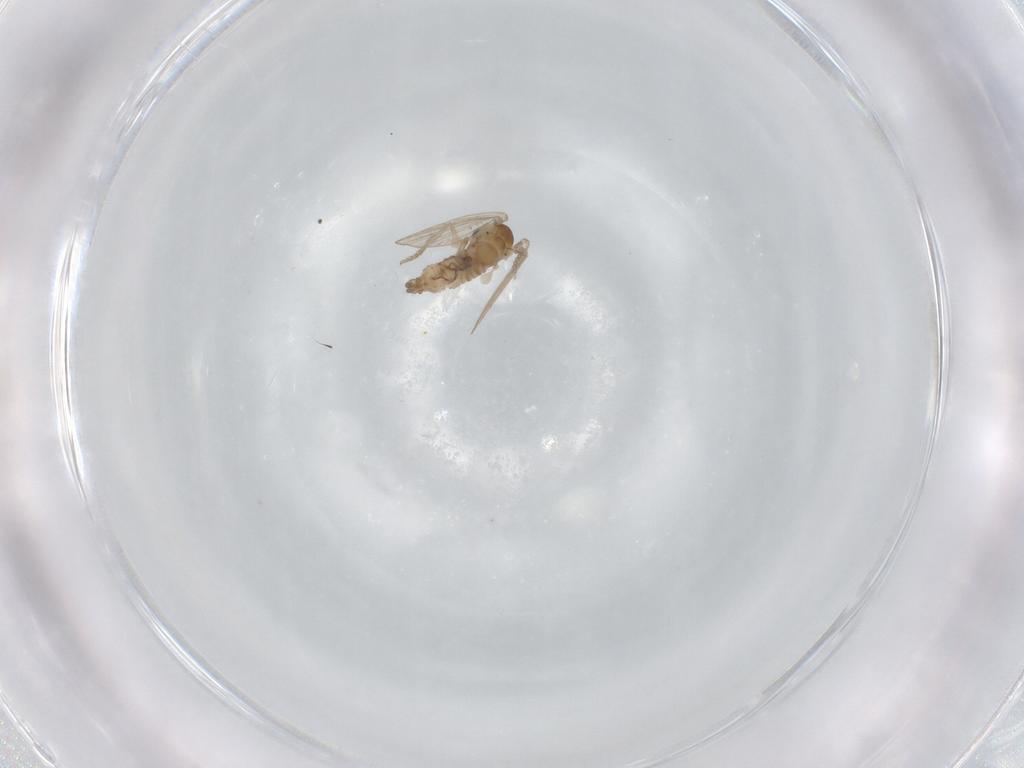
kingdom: Animalia
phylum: Arthropoda
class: Insecta
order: Diptera
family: Psychodidae
